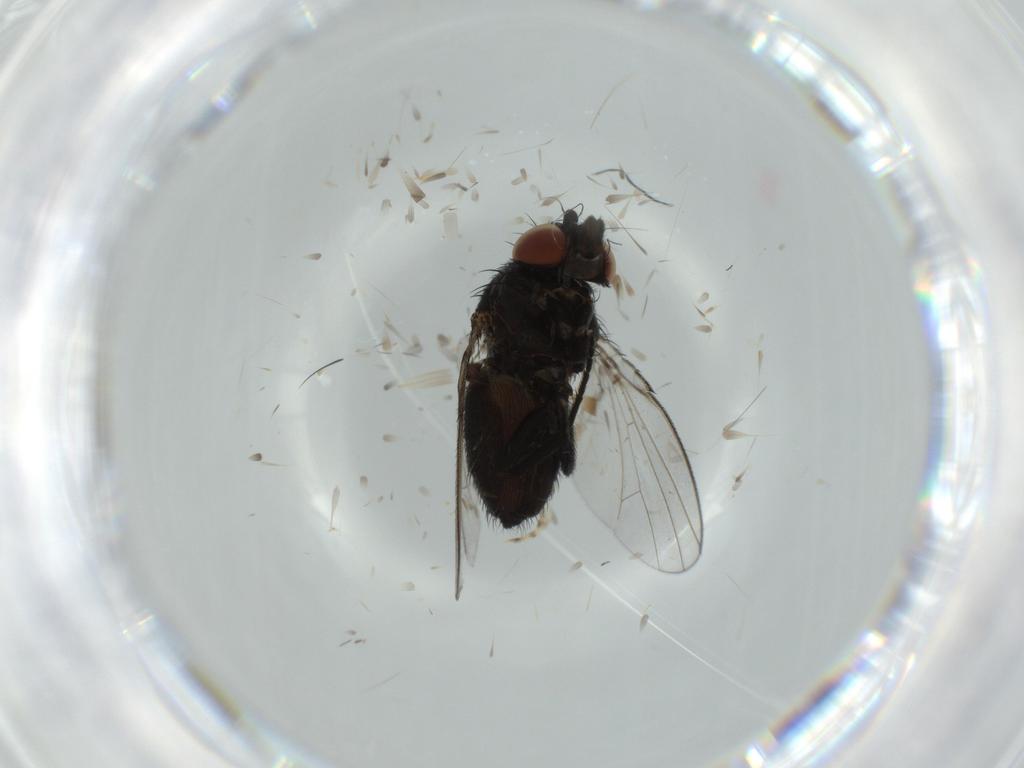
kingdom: Animalia
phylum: Arthropoda
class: Insecta
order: Diptera
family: Milichiidae
